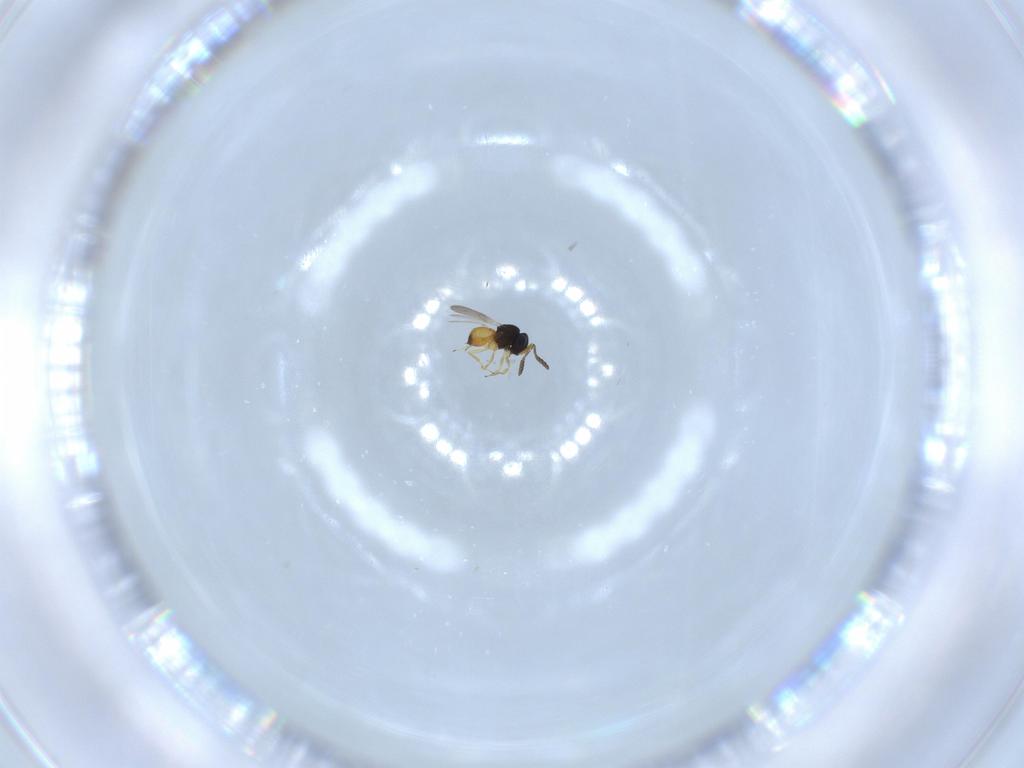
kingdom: Animalia
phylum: Arthropoda
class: Insecta
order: Hymenoptera
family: Scelionidae
